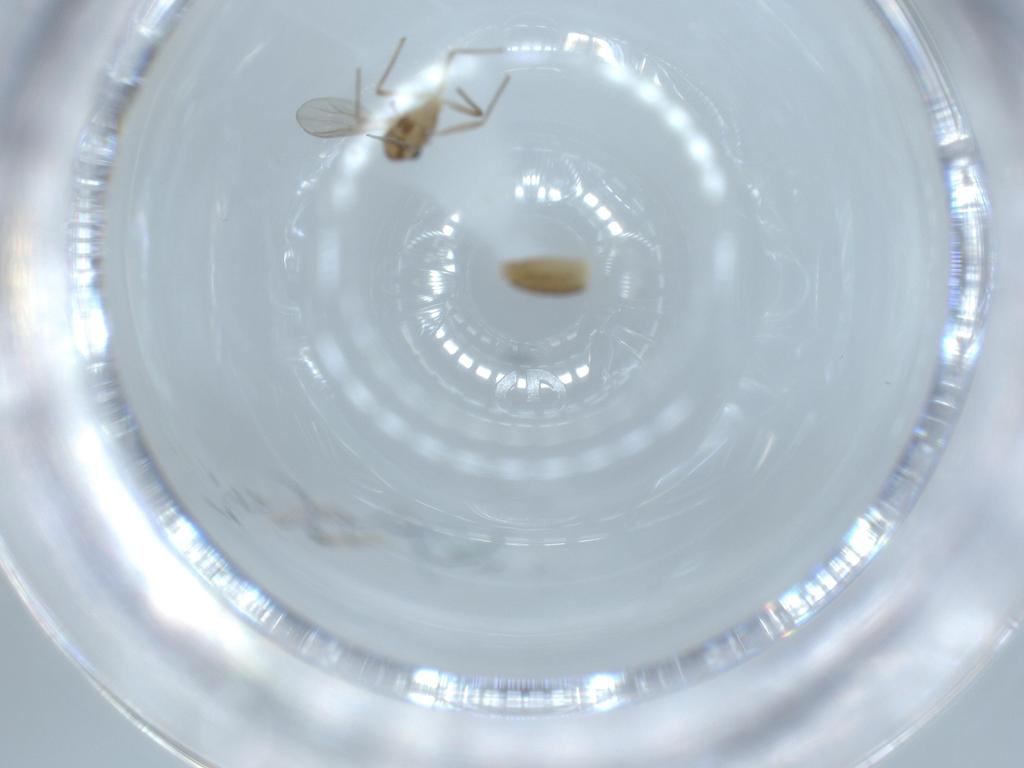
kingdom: Animalia
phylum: Arthropoda
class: Insecta
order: Diptera
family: Chironomidae
